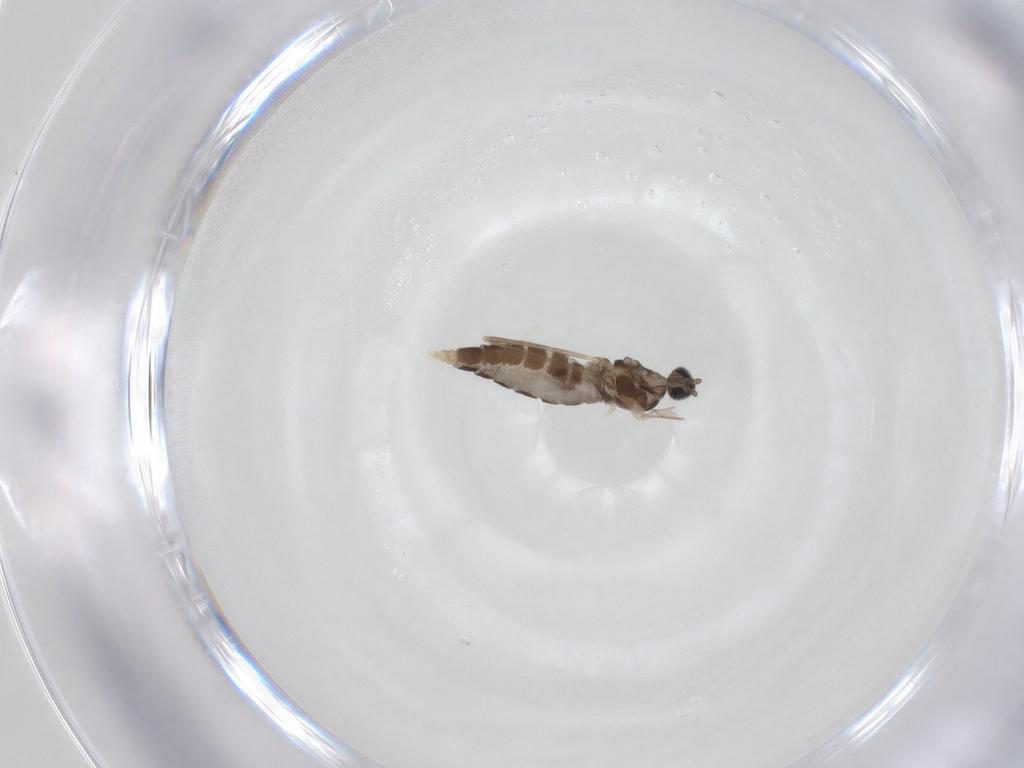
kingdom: Animalia
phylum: Arthropoda
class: Insecta
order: Diptera
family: Cecidomyiidae
